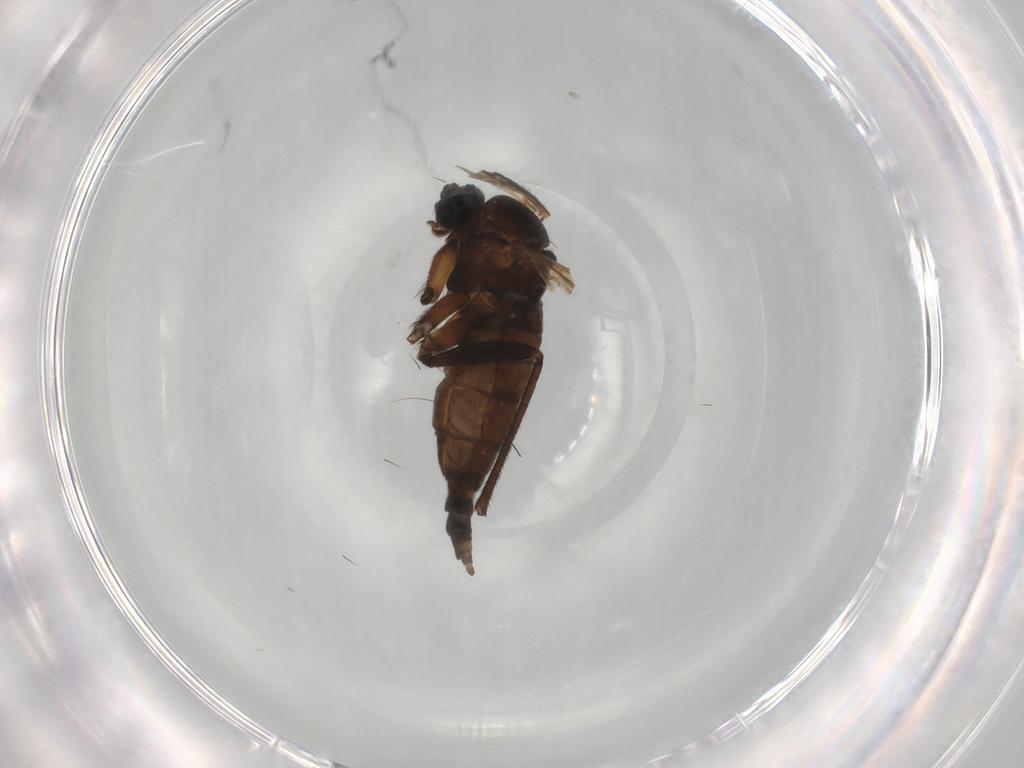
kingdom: Animalia
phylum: Arthropoda
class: Insecta
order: Diptera
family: Sciaridae
